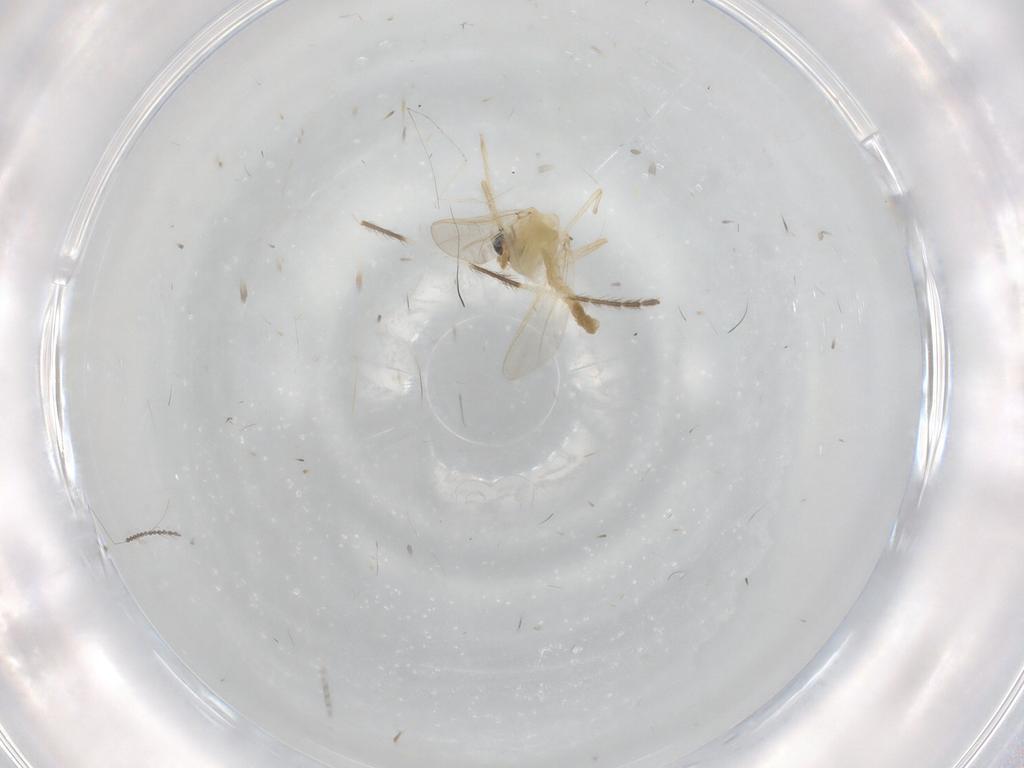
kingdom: Animalia
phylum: Arthropoda
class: Insecta
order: Diptera
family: Chironomidae
